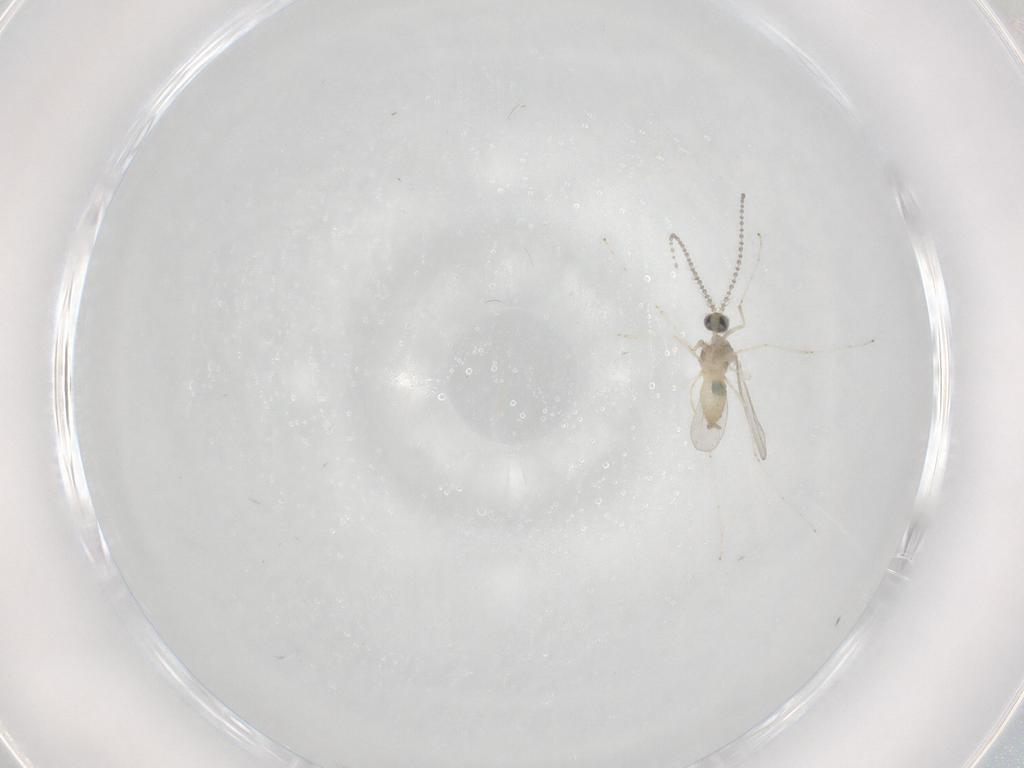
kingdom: Animalia
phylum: Arthropoda
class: Insecta
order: Diptera
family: Cecidomyiidae
